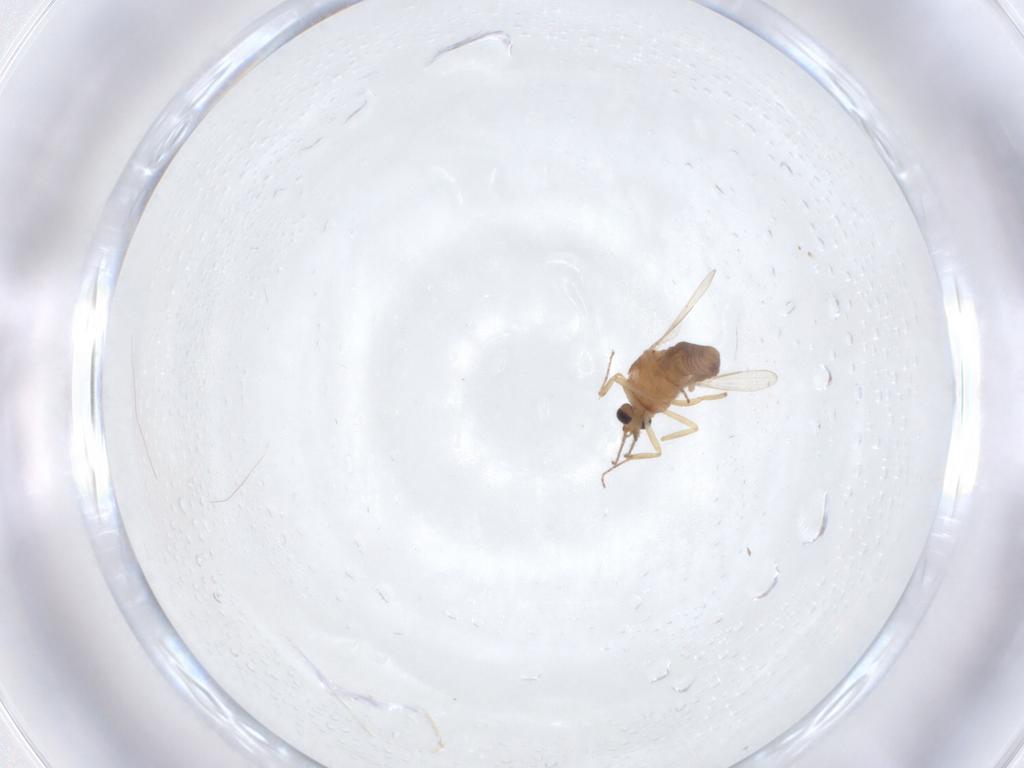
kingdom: Animalia
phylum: Arthropoda
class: Insecta
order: Diptera
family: Ceratopogonidae
